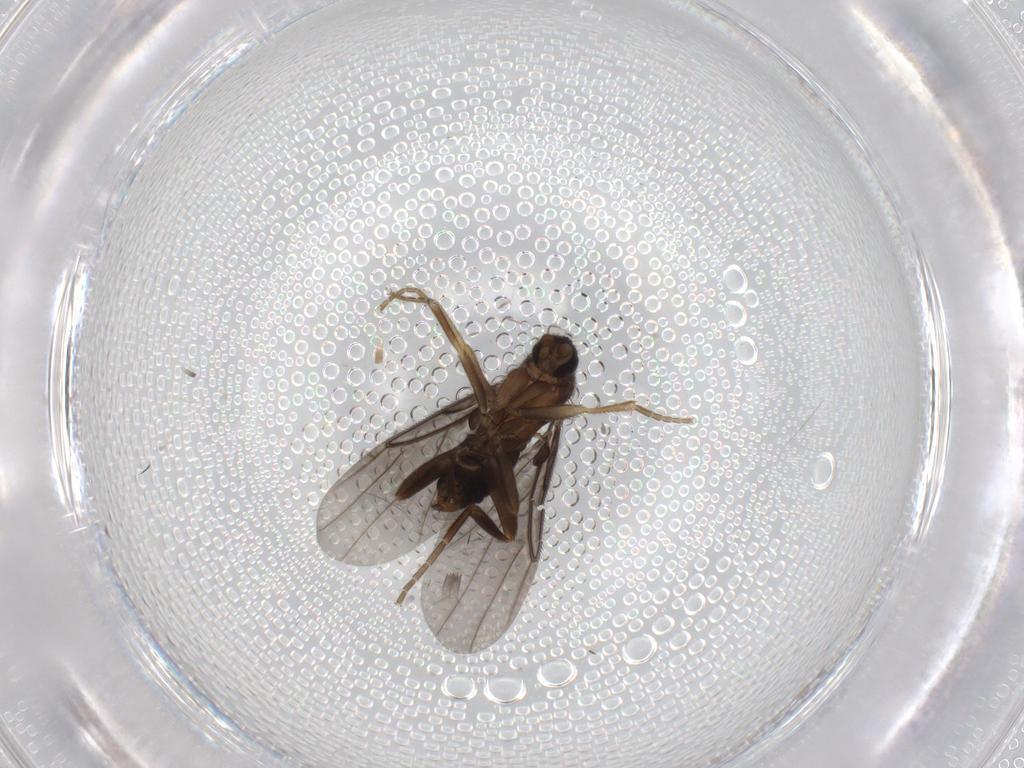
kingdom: Animalia
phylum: Arthropoda
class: Insecta
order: Diptera
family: Phoridae
